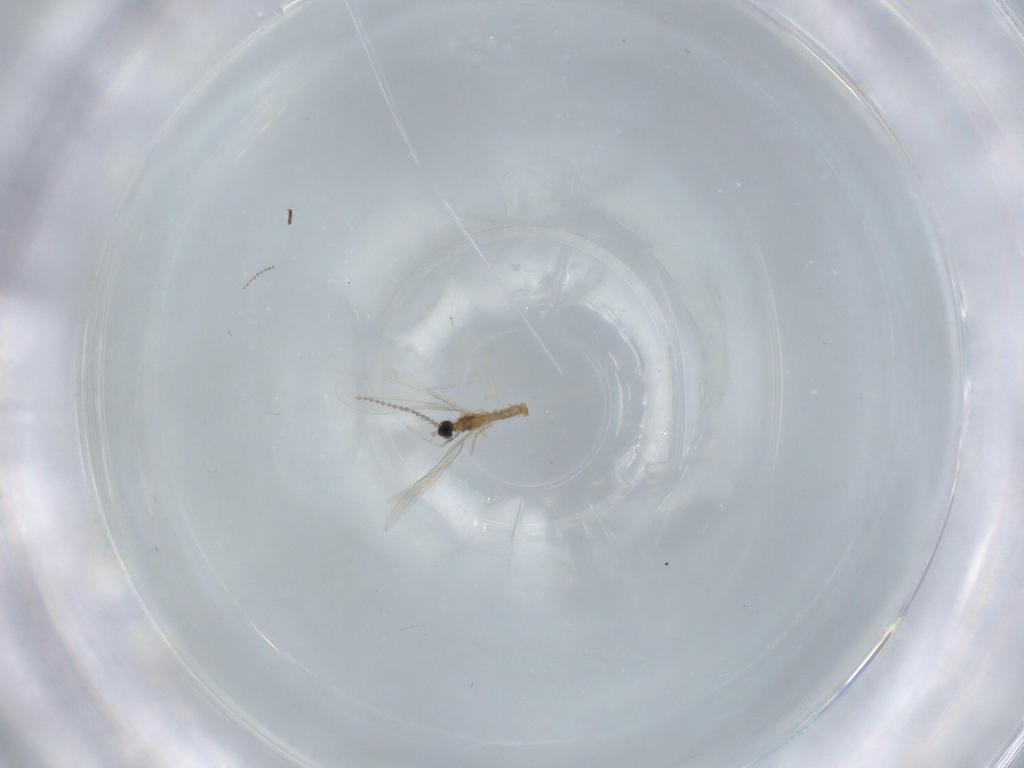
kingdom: Animalia
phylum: Arthropoda
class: Insecta
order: Diptera
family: Cecidomyiidae
